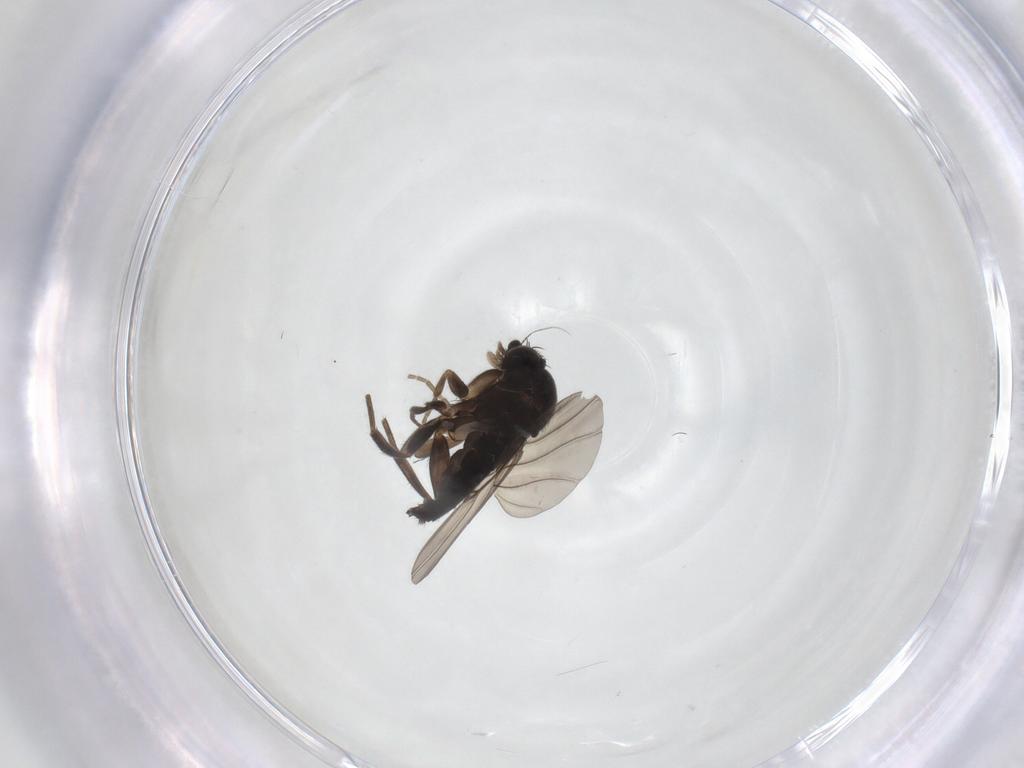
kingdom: Animalia
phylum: Arthropoda
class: Insecta
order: Diptera
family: Phoridae
